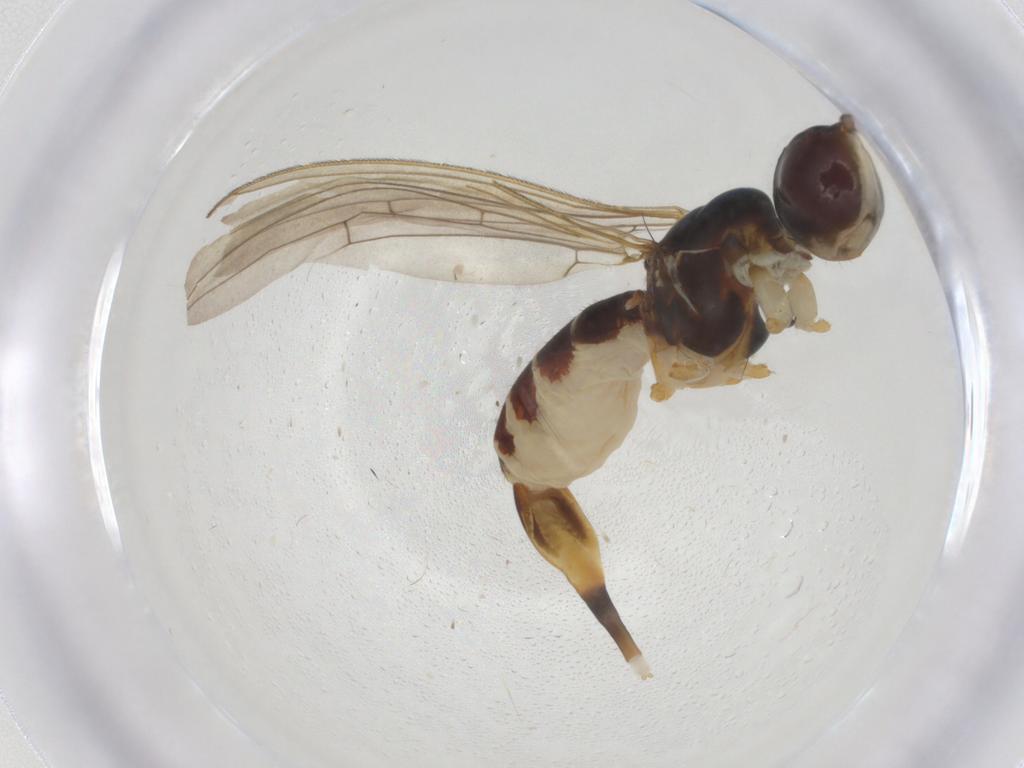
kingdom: Animalia
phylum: Arthropoda
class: Insecta
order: Diptera
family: Micropezidae
